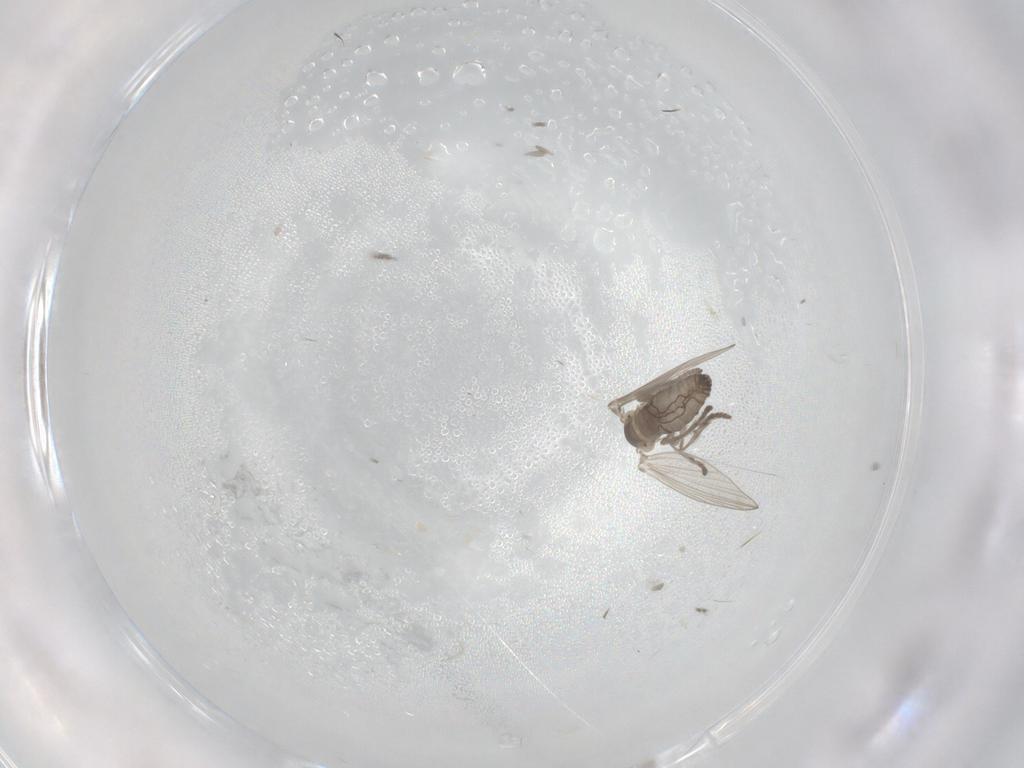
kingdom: Animalia
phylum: Arthropoda
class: Insecta
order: Diptera
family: Psychodidae
